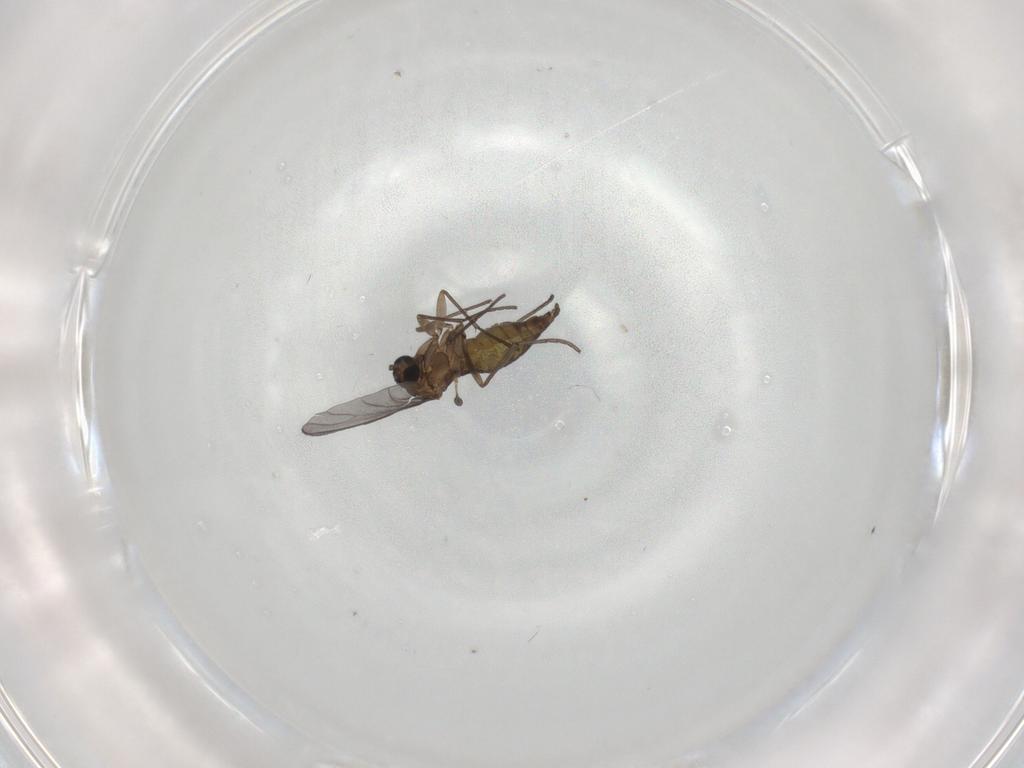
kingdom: Animalia
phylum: Arthropoda
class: Insecta
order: Diptera
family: Sciaridae
